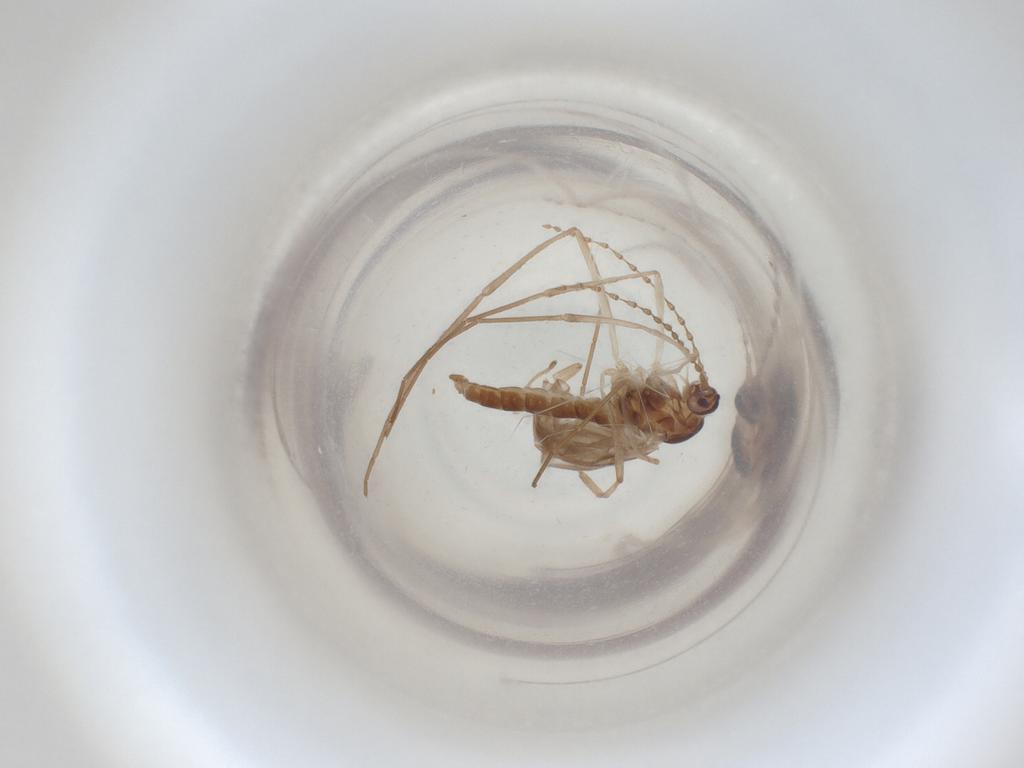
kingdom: Animalia
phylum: Arthropoda
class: Insecta
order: Diptera
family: Cecidomyiidae
